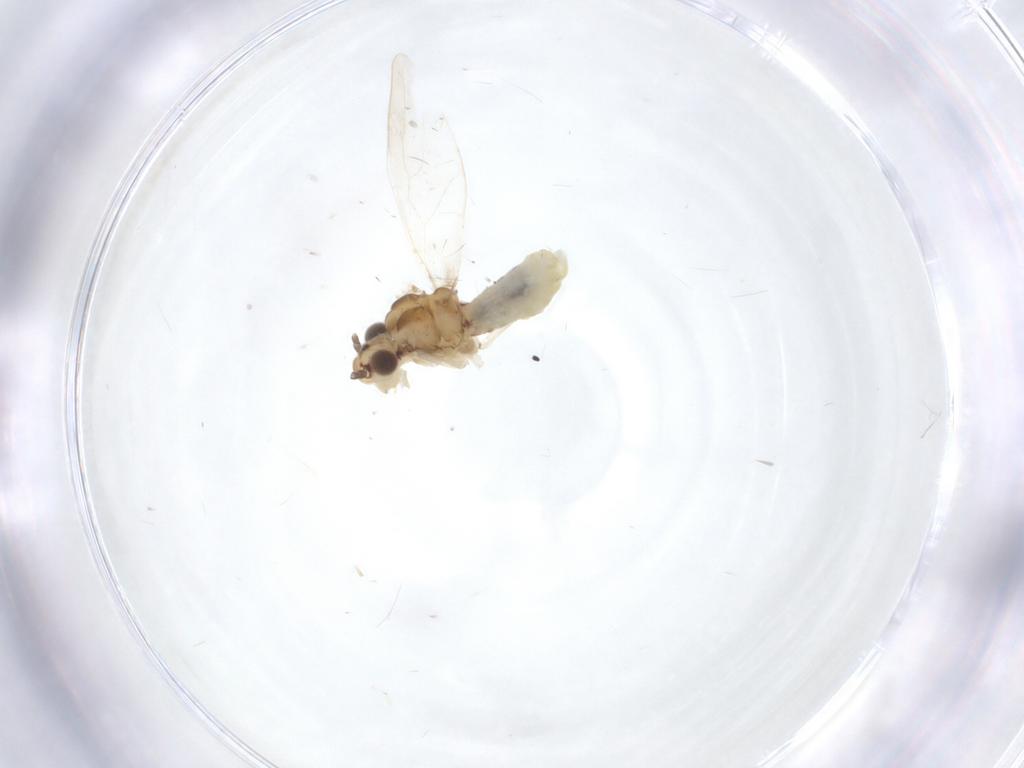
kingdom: Animalia
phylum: Arthropoda
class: Insecta
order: Psocodea
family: Caeciliusidae
